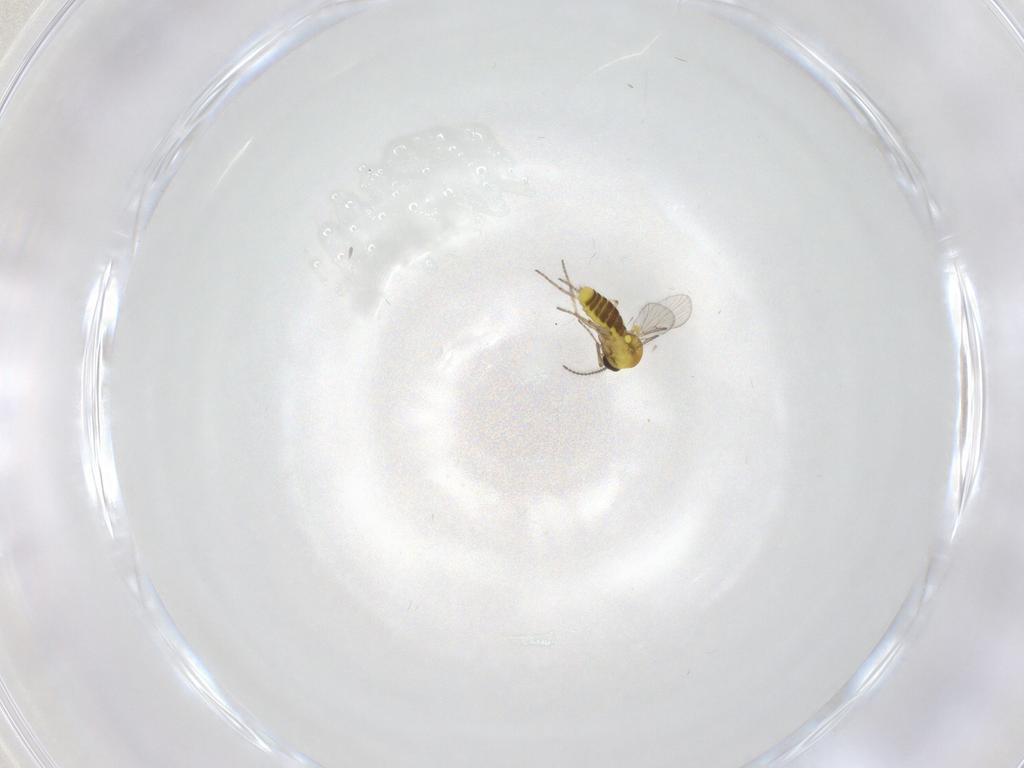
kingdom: Animalia
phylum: Arthropoda
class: Insecta
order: Diptera
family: Ceratopogonidae
